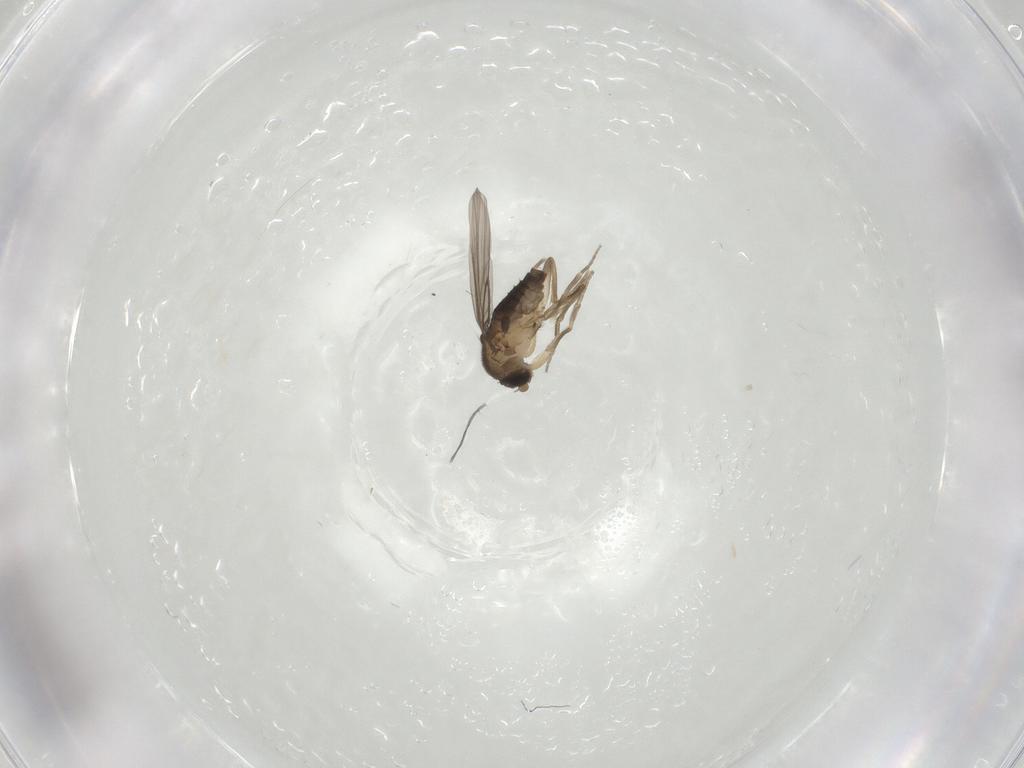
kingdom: Animalia
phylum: Arthropoda
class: Insecta
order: Diptera
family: Phoridae
